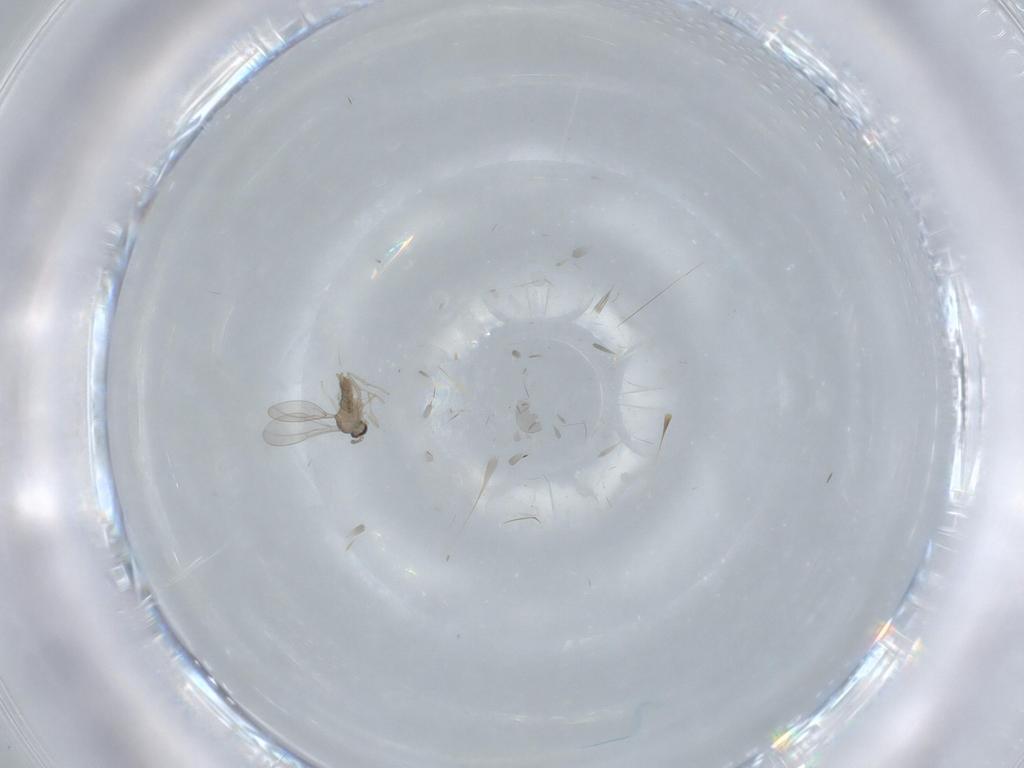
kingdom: Animalia
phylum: Arthropoda
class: Insecta
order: Diptera
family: Cecidomyiidae
